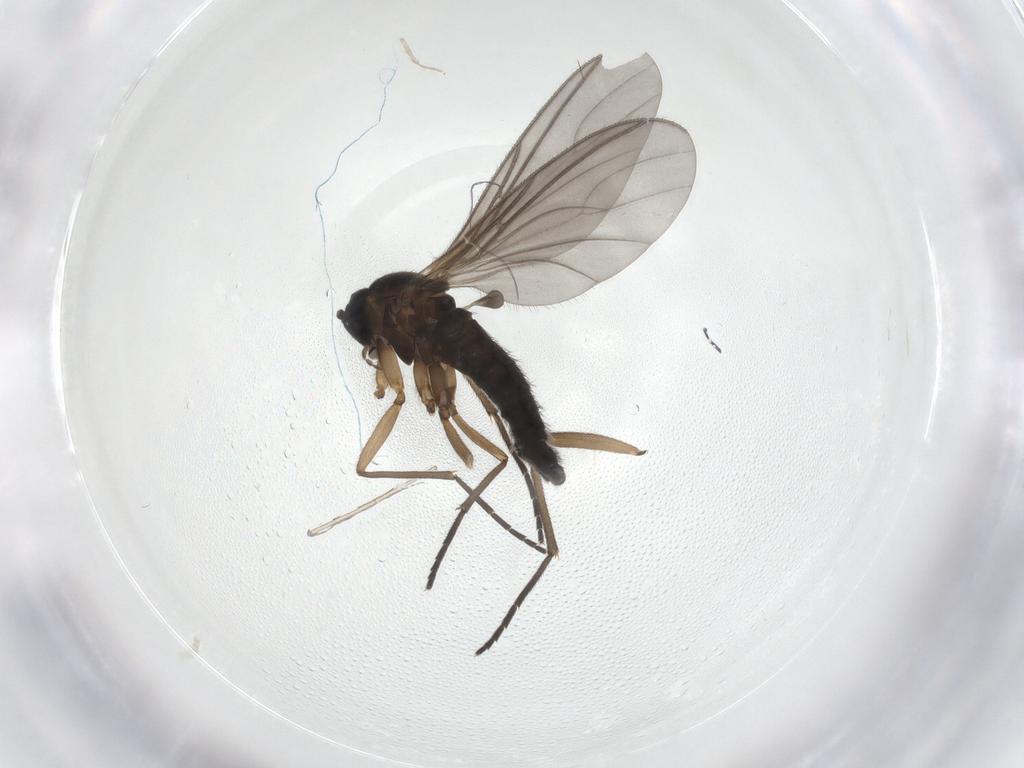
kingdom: Animalia
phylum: Arthropoda
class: Insecta
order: Diptera
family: Sciaridae
